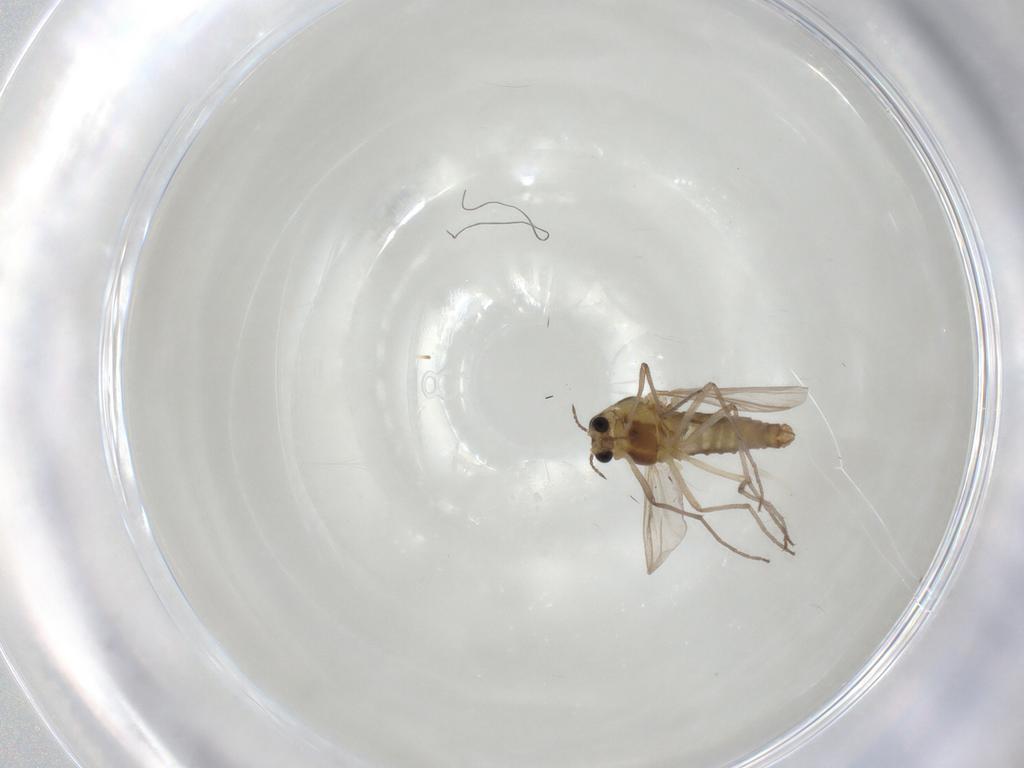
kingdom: Animalia
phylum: Arthropoda
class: Insecta
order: Diptera
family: Chironomidae
